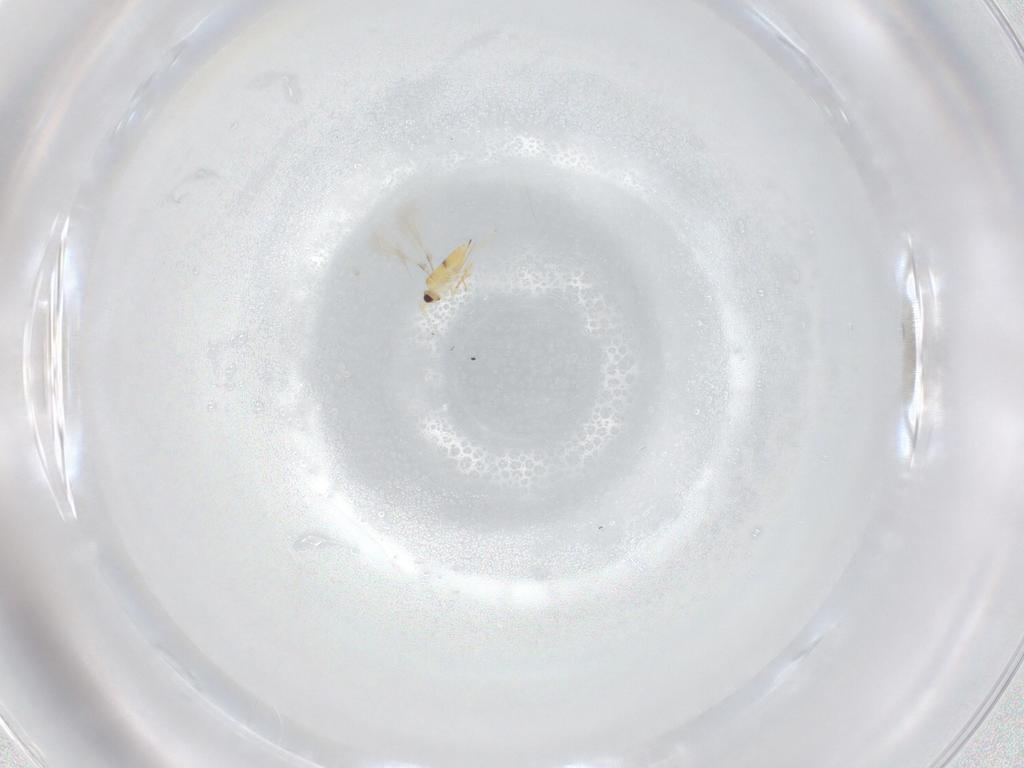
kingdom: Animalia
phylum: Arthropoda
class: Insecta
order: Hymenoptera
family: Mymaridae
